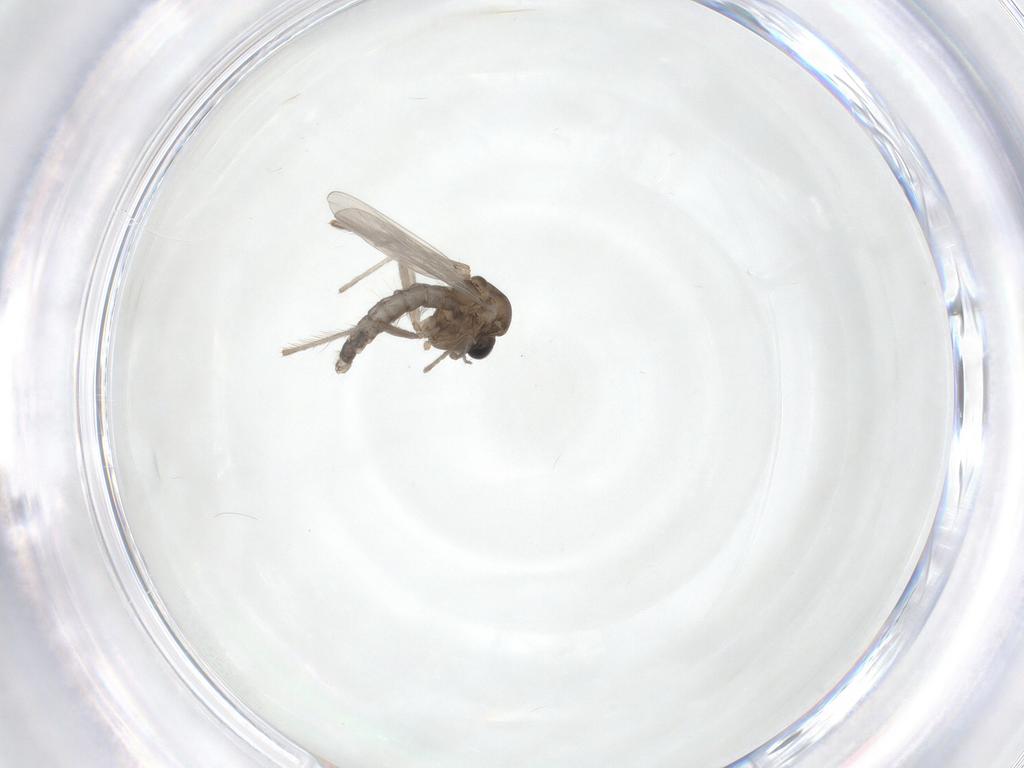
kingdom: Animalia
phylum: Arthropoda
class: Insecta
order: Diptera
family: Chironomidae
